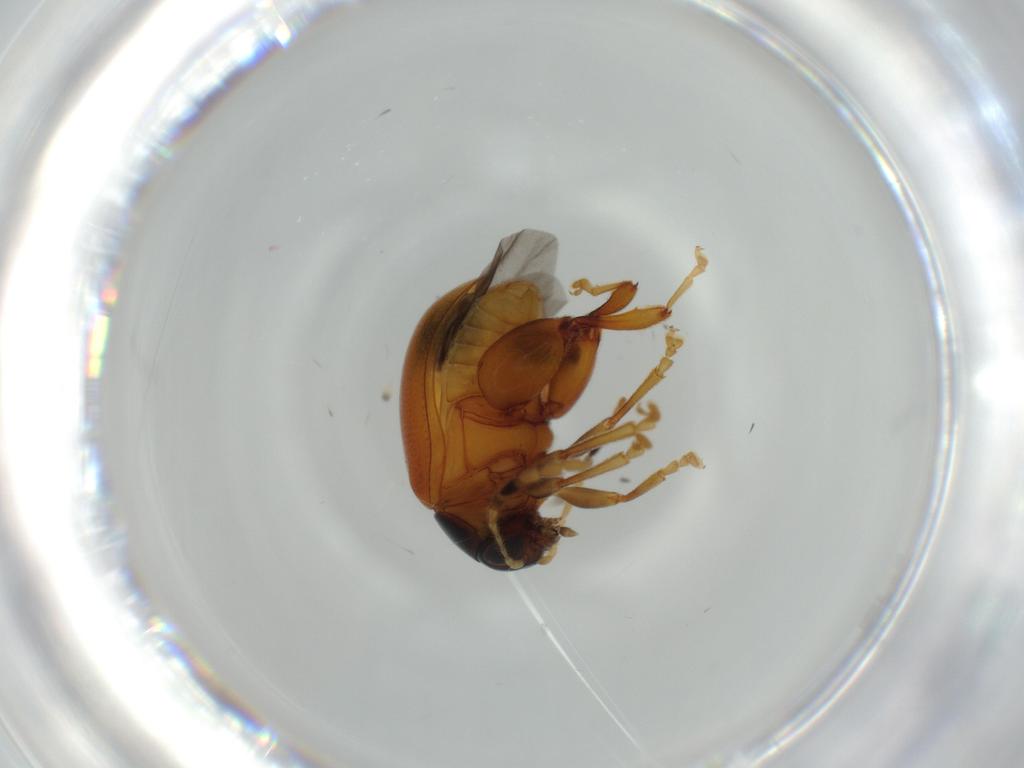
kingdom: Animalia
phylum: Arthropoda
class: Insecta
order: Coleoptera
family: Chrysomelidae
